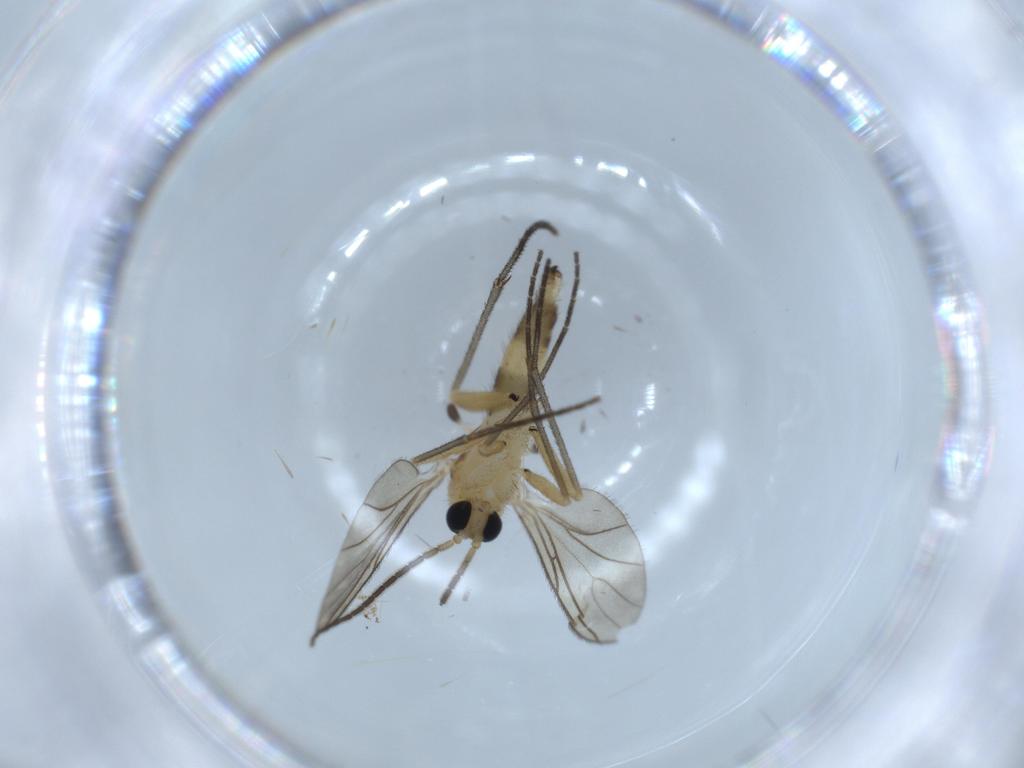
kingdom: Animalia
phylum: Arthropoda
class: Insecta
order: Diptera
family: Sciaridae
